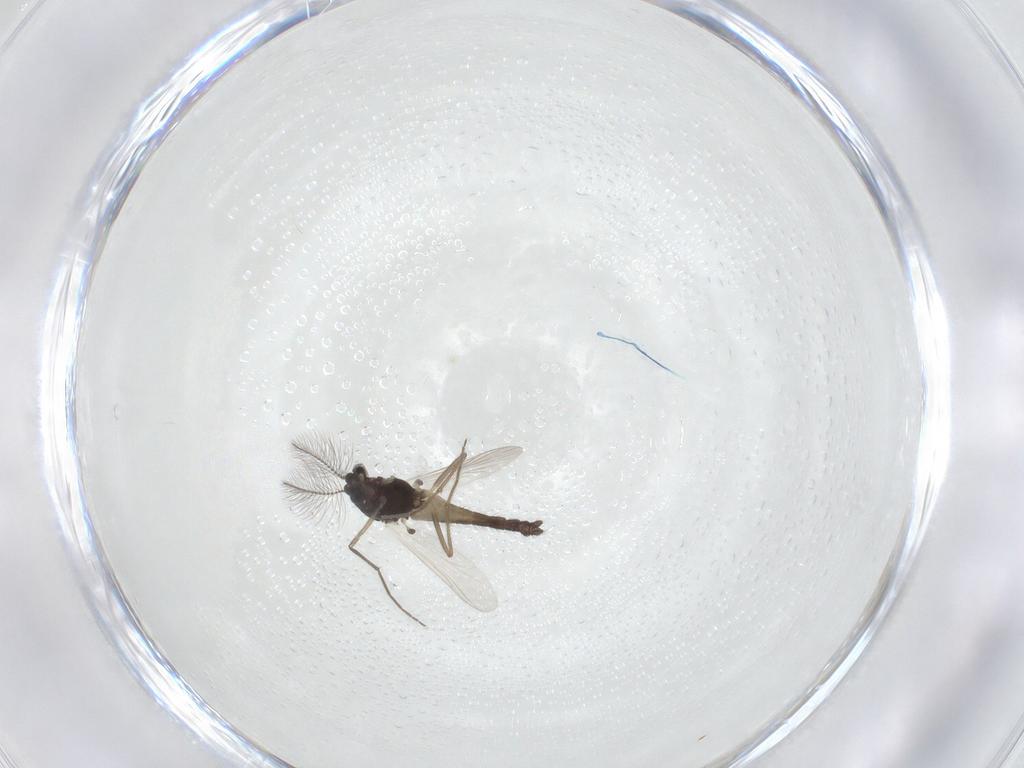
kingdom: Animalia
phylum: Arthropoda
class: Insecta
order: Diptera
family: Chironomidae
